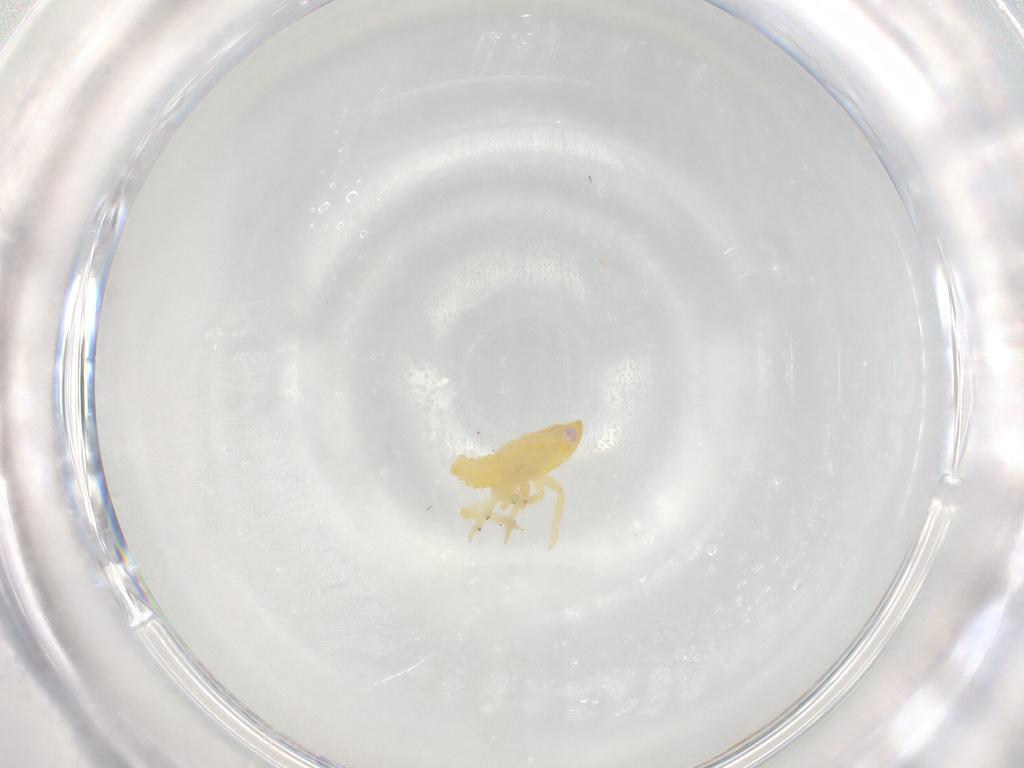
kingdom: Animalia
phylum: Arthropoda
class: Insecta
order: Hemiptera
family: Tropiduchidae
